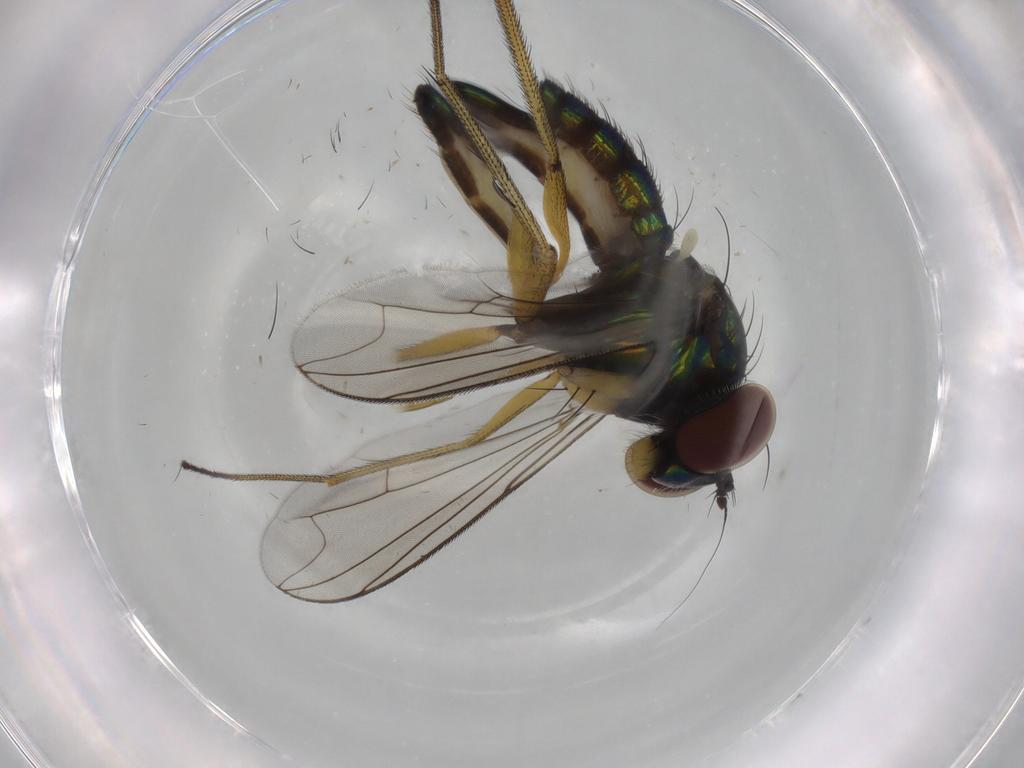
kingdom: Animalia
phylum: Arthropoda
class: Insecta
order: Diptera
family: Dolichopodidae
